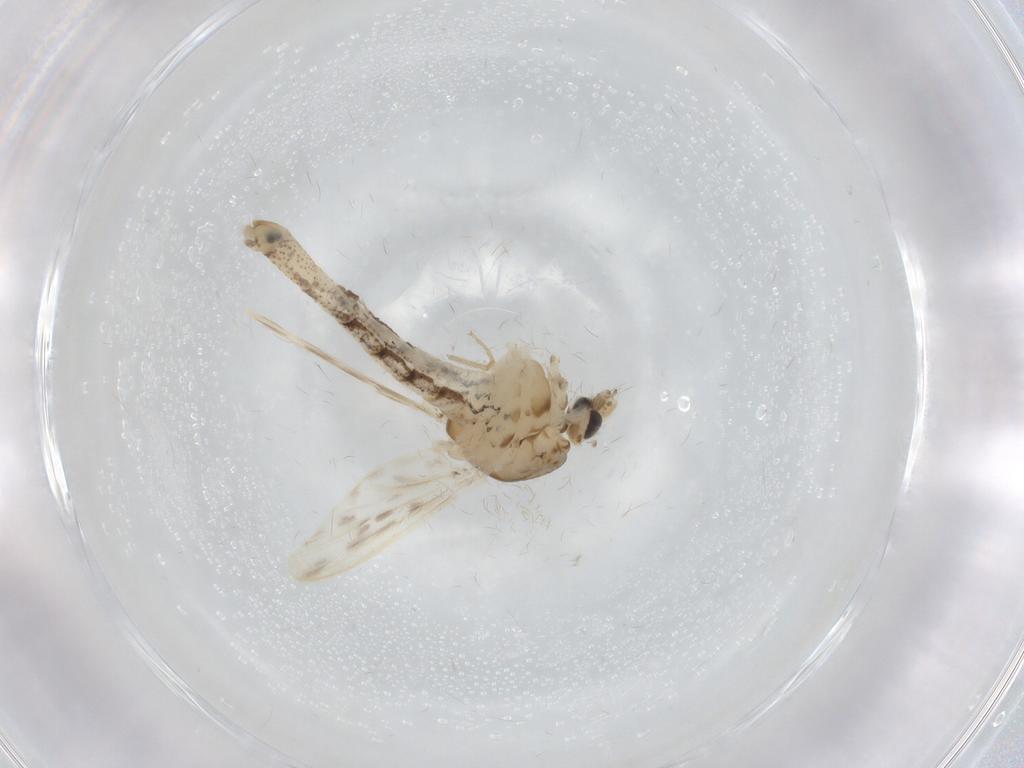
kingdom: Animalia
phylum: Arthropoda
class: Insecta
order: Diptera
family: Chaoboridae
